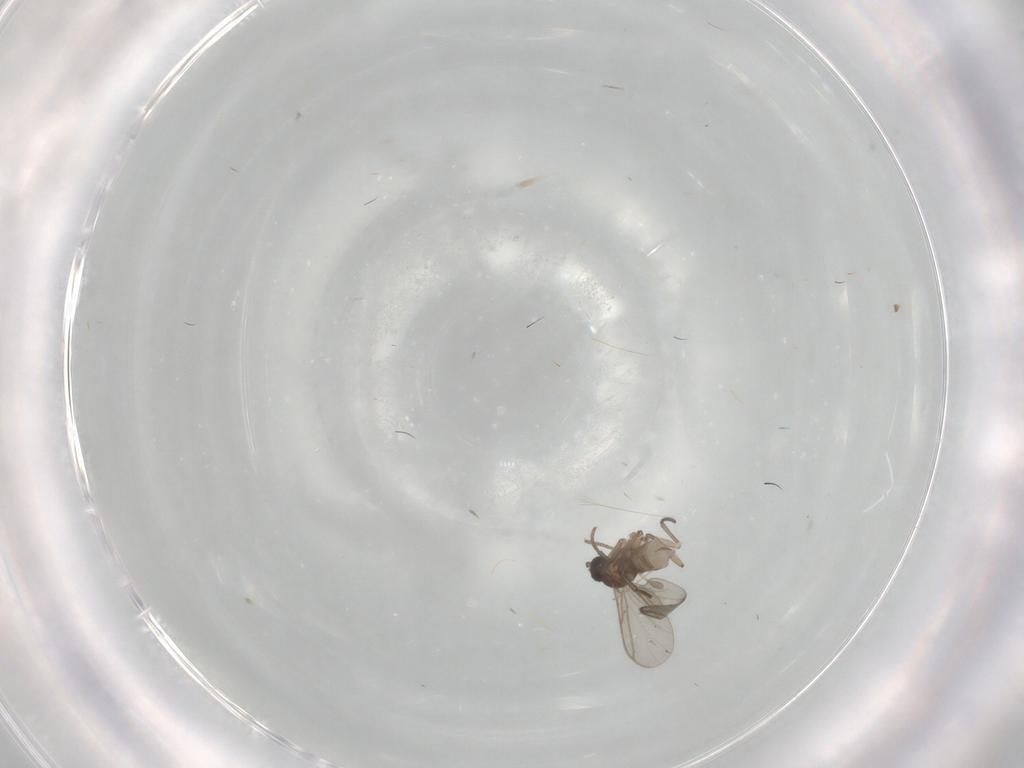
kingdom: Animalia
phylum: Arthropoda
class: Insecta
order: Diptera
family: Sciaridae
